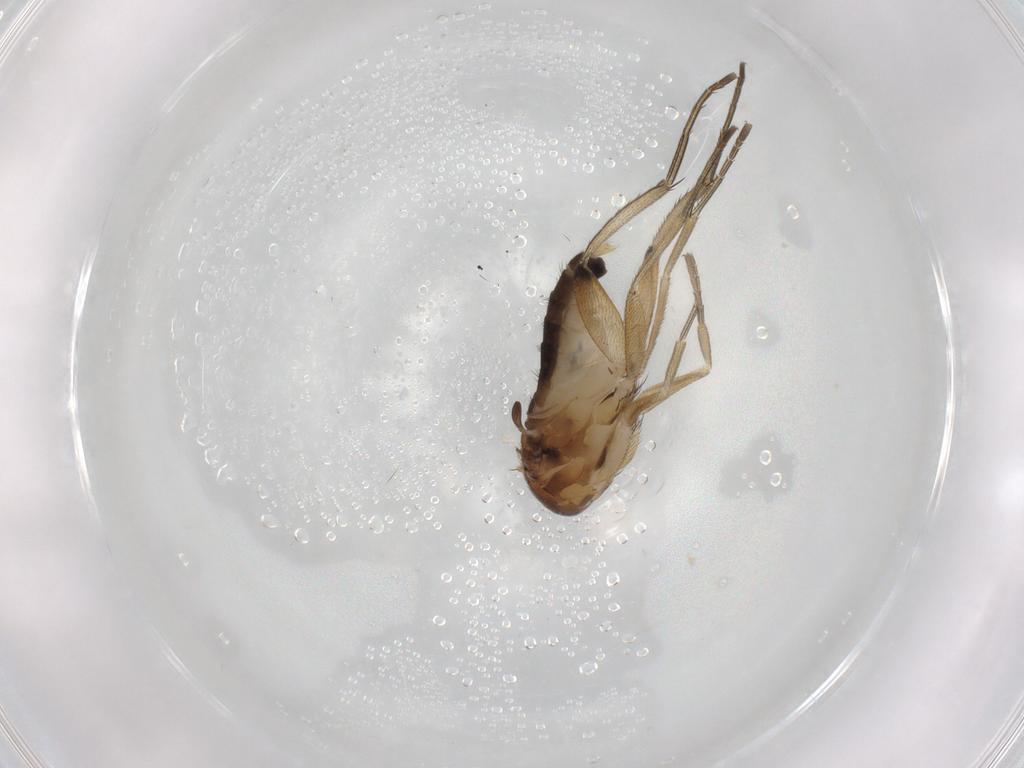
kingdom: Animalia
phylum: Arthropoda
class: Insecta
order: Diptera
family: Phoridae
